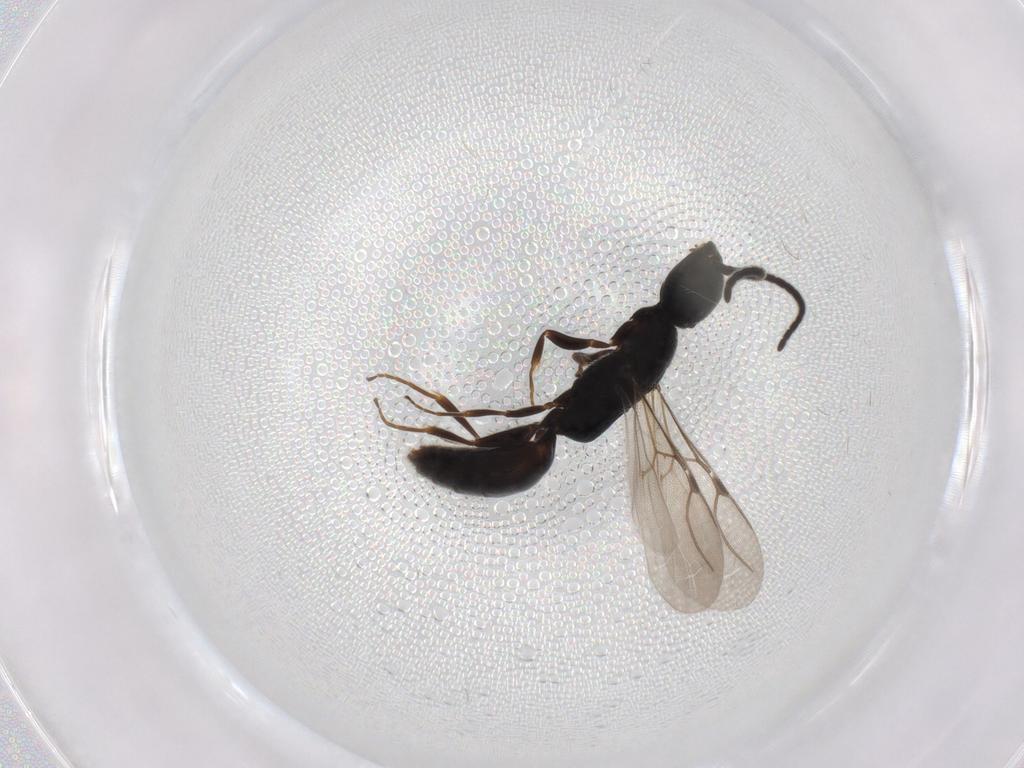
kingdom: Animalia
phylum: Arthropoda
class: Insecta
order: Hymenoptera
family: Bethylidae
